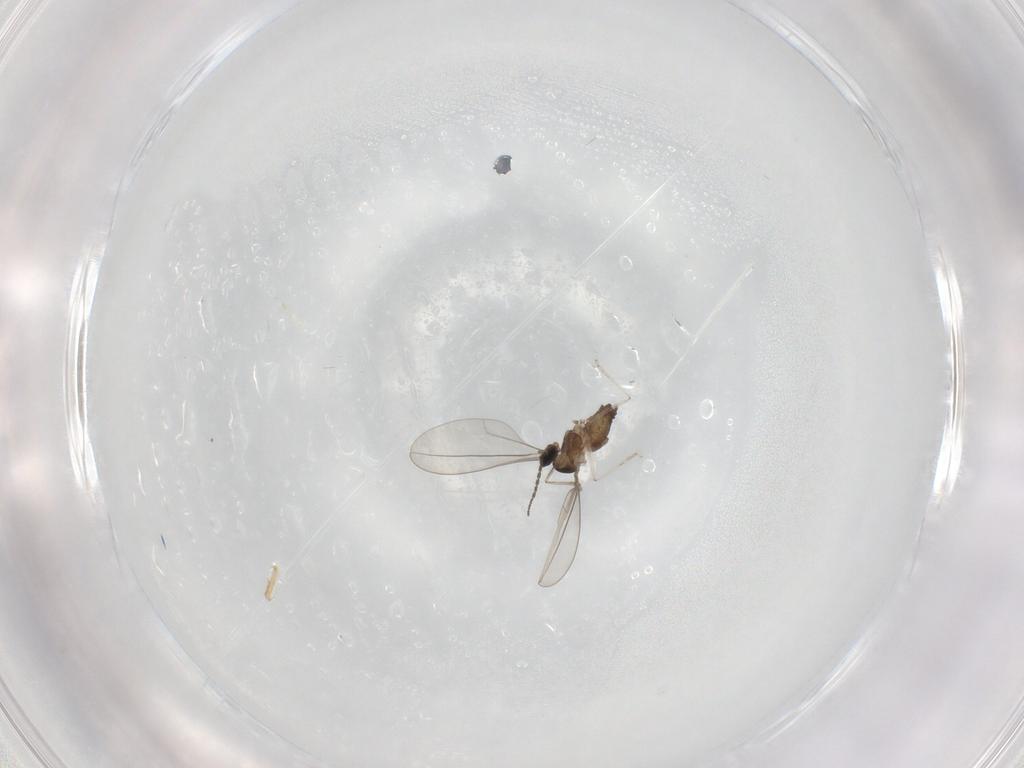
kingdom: Animalia
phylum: Arthropoda
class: Insecta
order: Diptera
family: Cecidomyiidae
